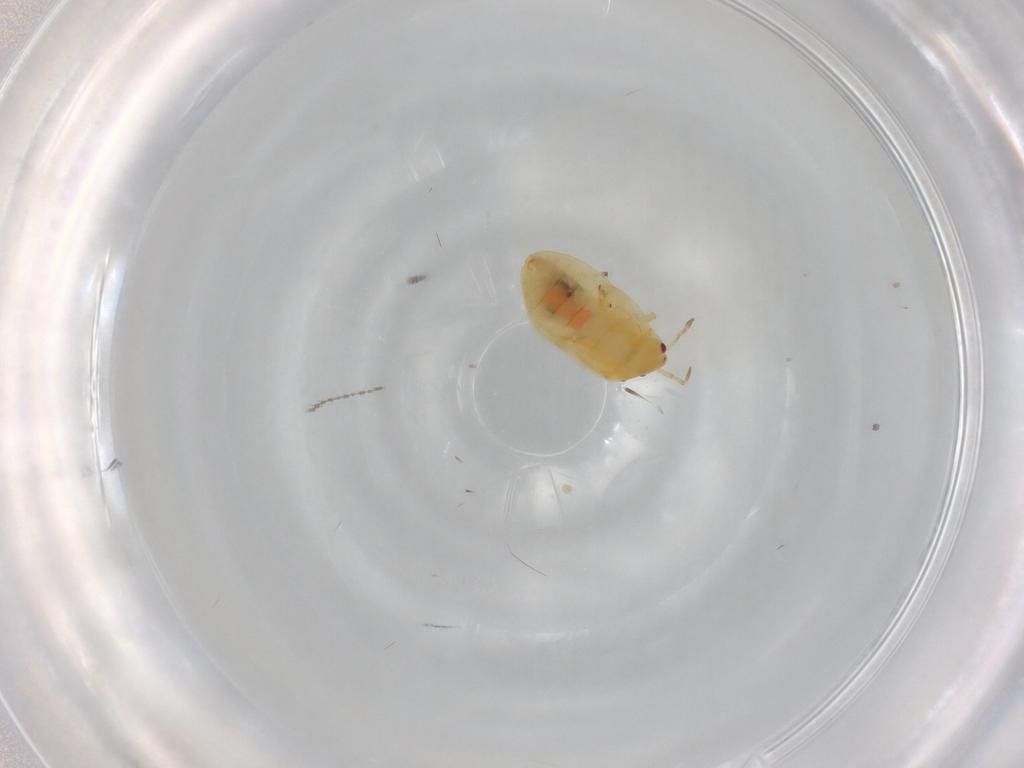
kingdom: Animalia
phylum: Arthropoda
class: Insecta
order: Hemiptera
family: Anthocoridae
